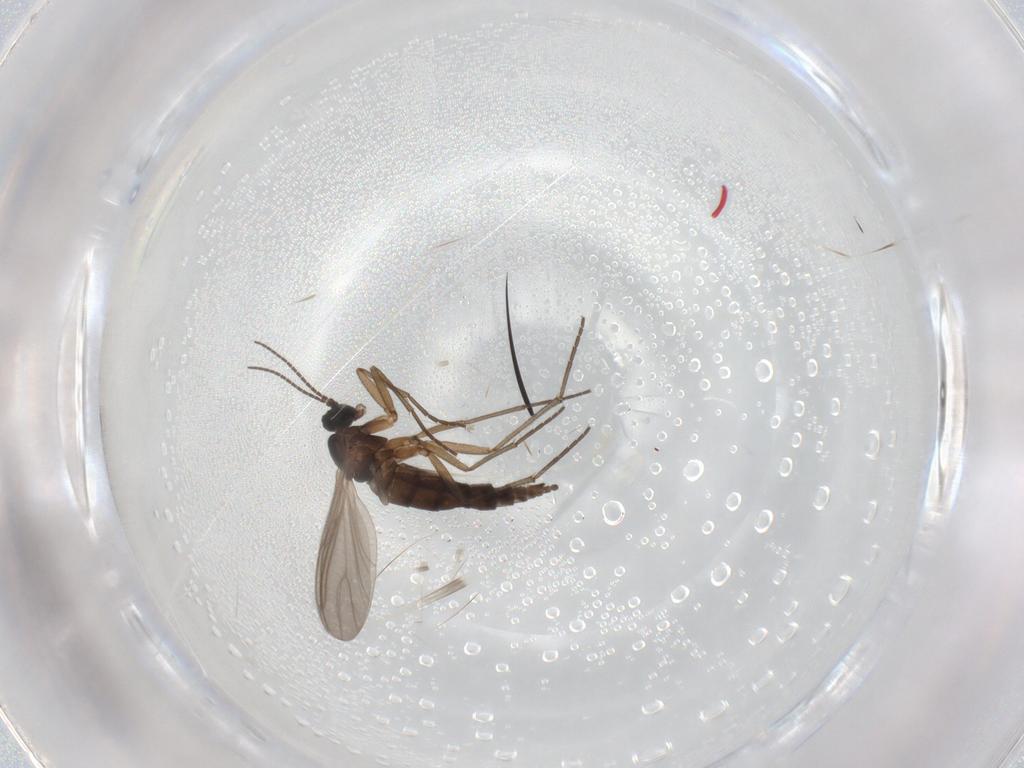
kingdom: Animalia
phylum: Arthropoda
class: Insecta
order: Diptera
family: Sciaridae
